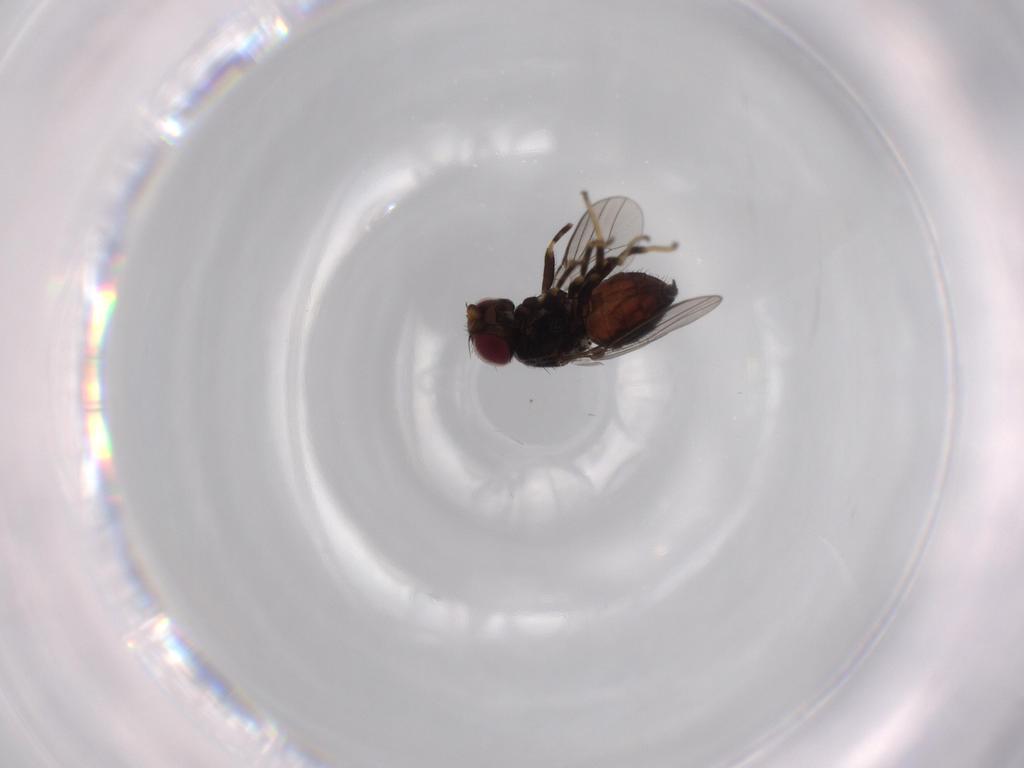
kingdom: Animalia
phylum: Arthropoda
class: Insecta
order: Diptera
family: Chloropidae
